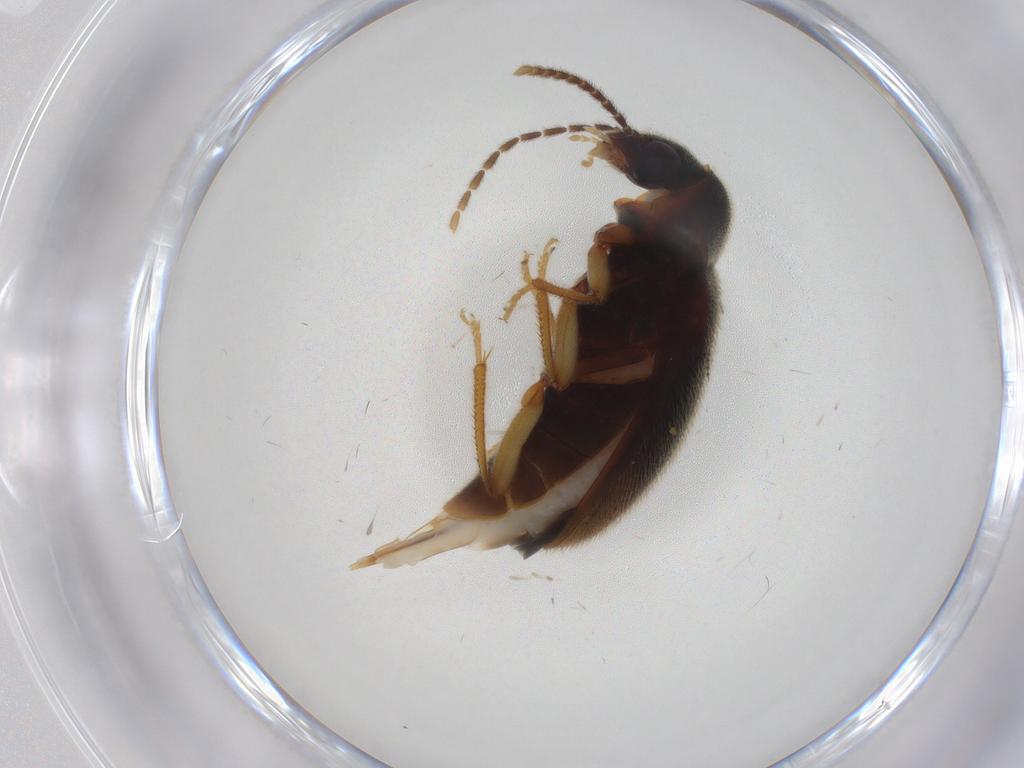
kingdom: Animalia
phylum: Arthropoda
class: Insecta
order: Coleoptera
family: Ptilodactylidae
